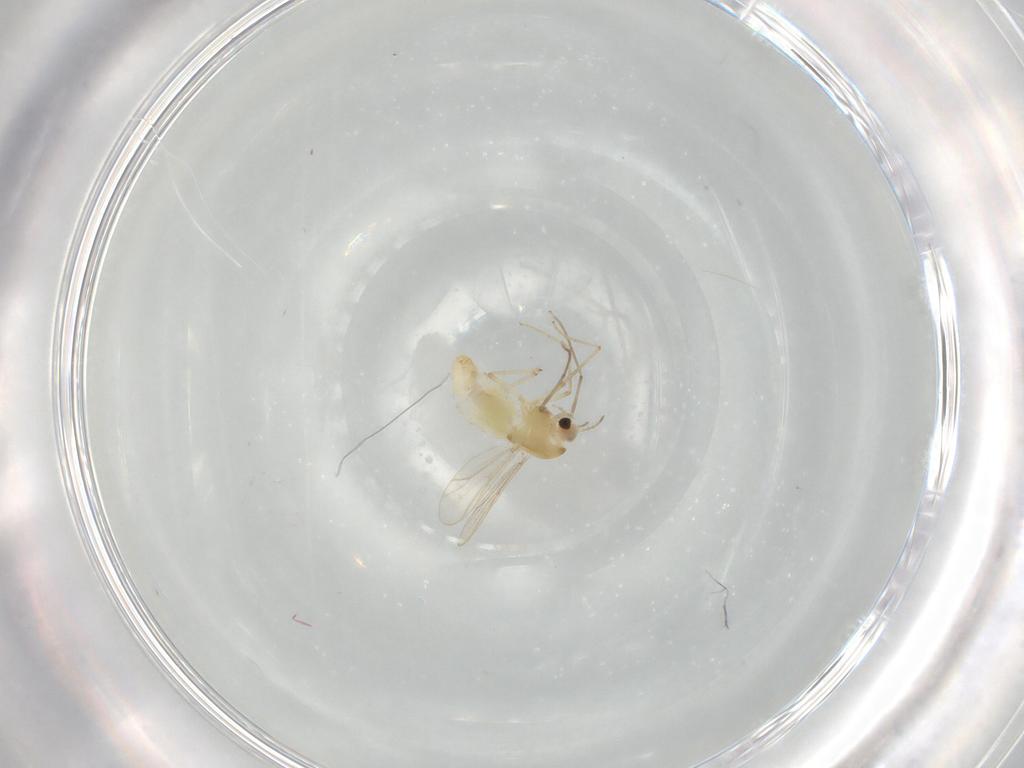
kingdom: Animalia
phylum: Arthropoda
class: Insecta
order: Diptera
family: Chironomidae
